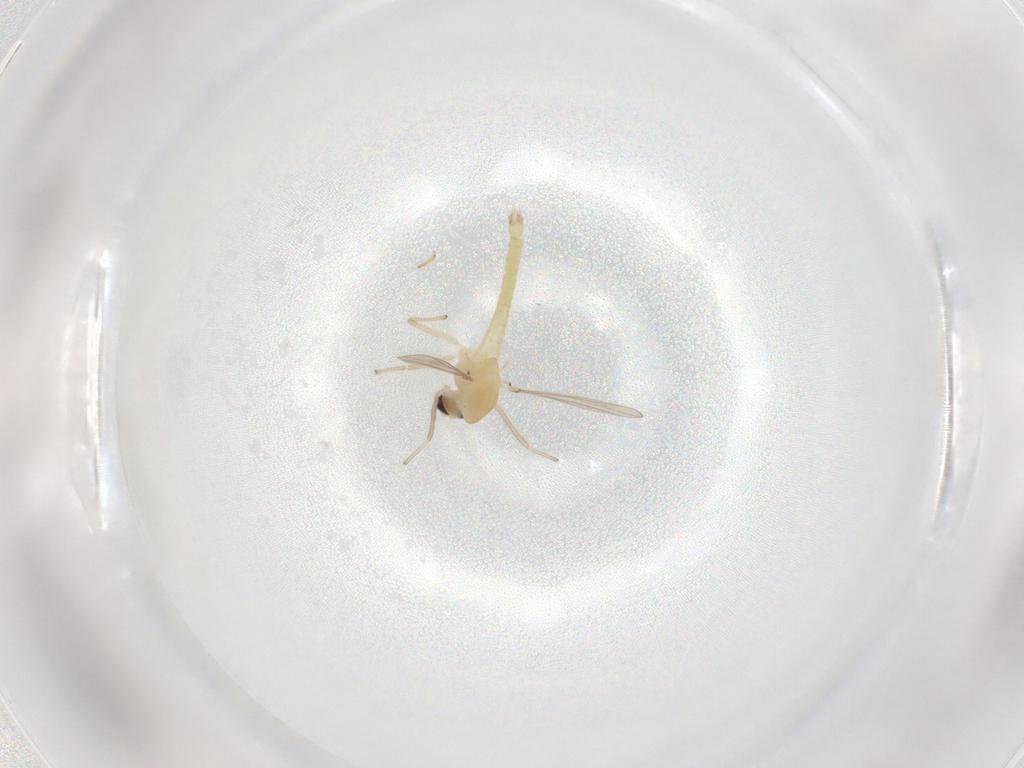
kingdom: Animalia
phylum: Arthropoda
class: Insecta
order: Diptera
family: Chironomidae
